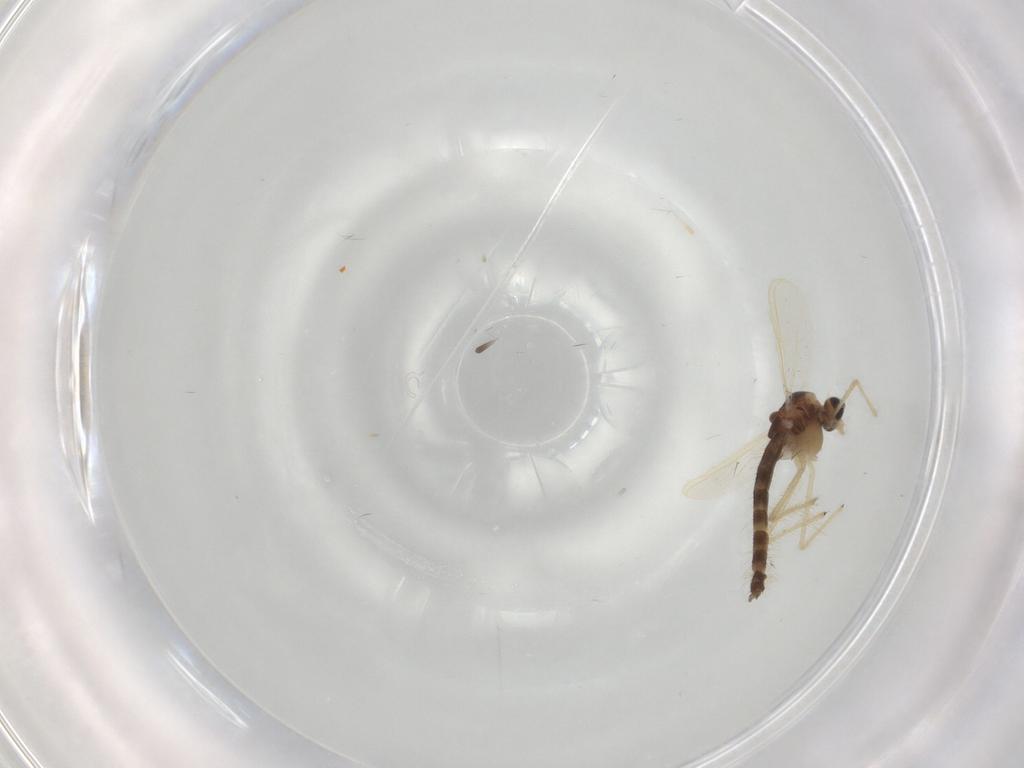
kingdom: Animalia
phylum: Arthropoda
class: Insecta
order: Diptera
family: Chironomidae
